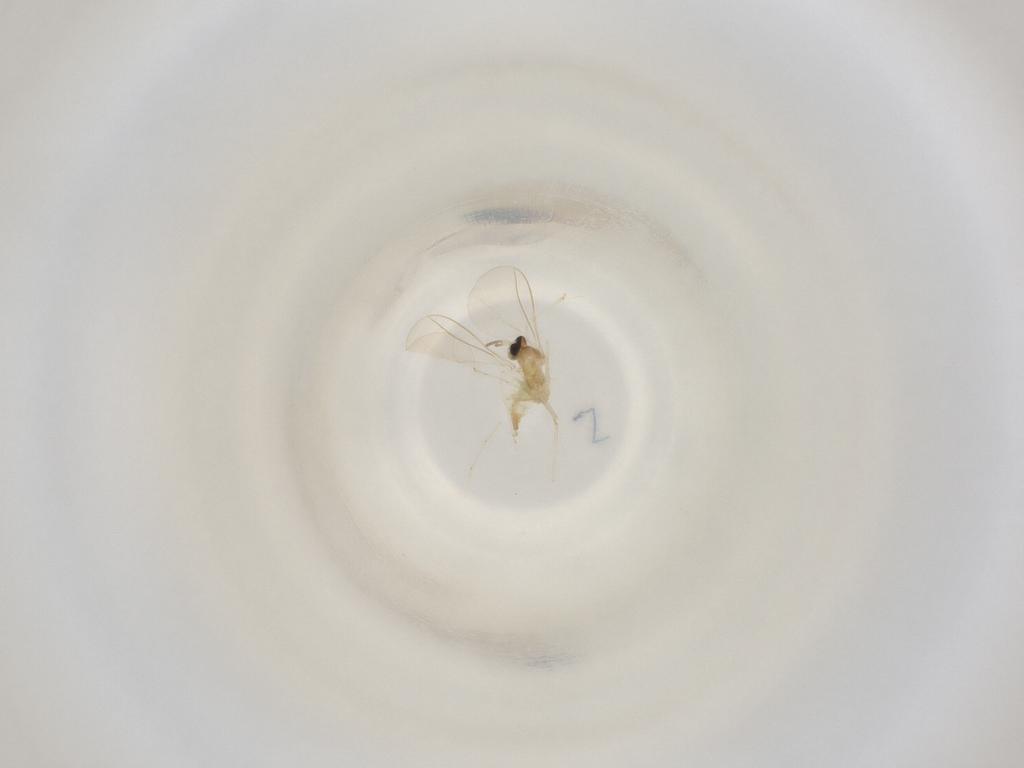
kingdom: Animalia
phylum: Arthropoda
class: Insecta
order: Diptera
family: Cecidomyiidae
